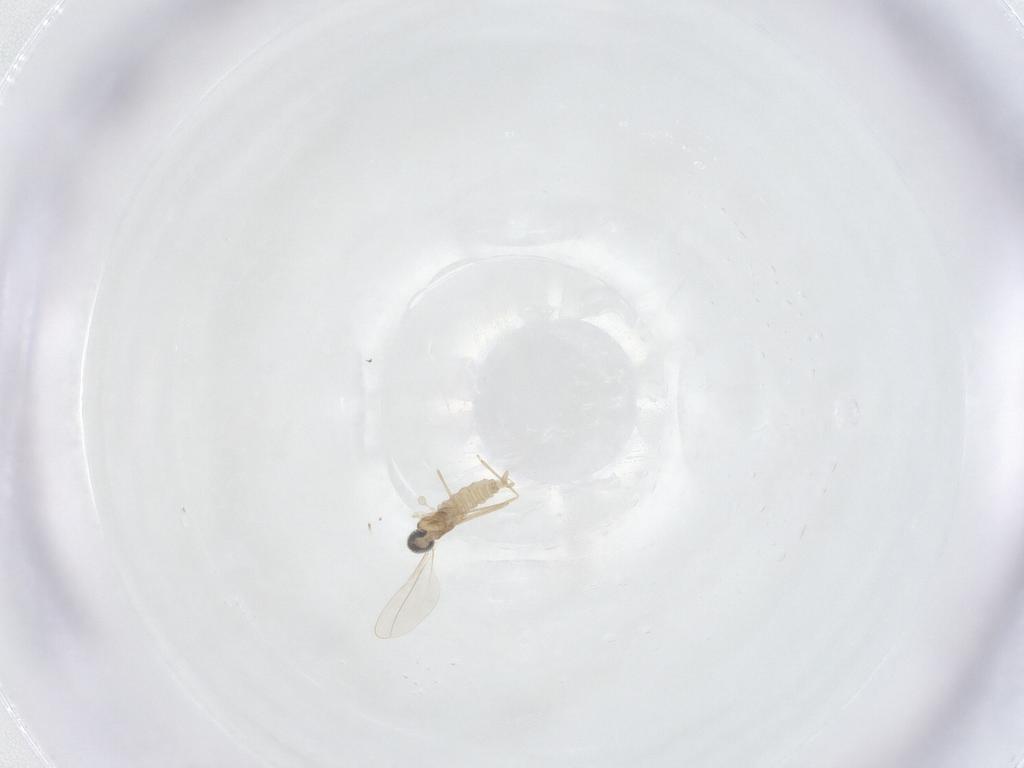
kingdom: Animalia
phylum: Arthropoda
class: Insecta
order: Diptera
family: Cecidomyiidae
